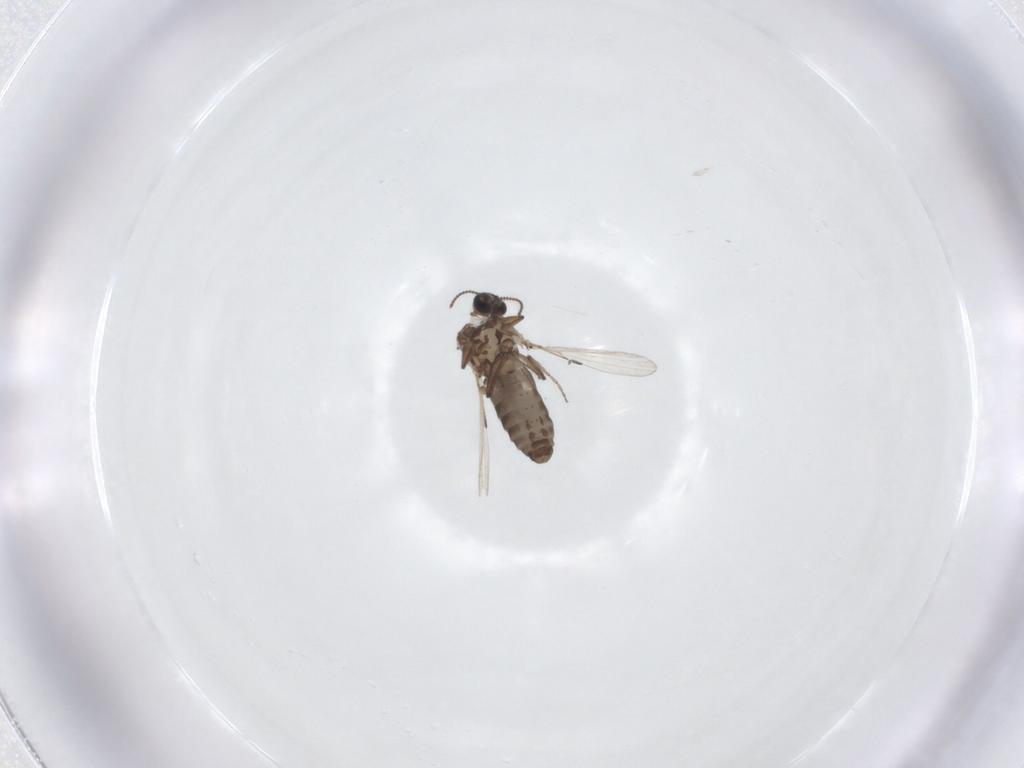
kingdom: Animalia
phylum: Arthropoda
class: Insecta
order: Diptera
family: Ceratopogonidae
